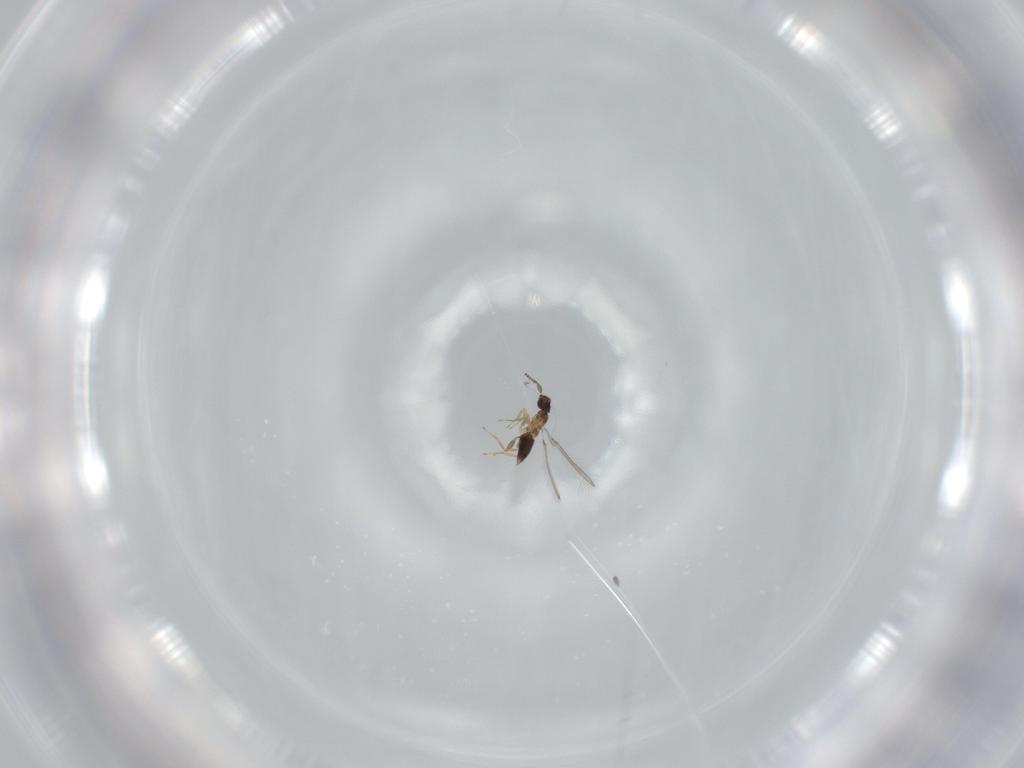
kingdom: Animalia
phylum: Arthropoda
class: Insecta
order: Hymenoptera
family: Mymaridae
